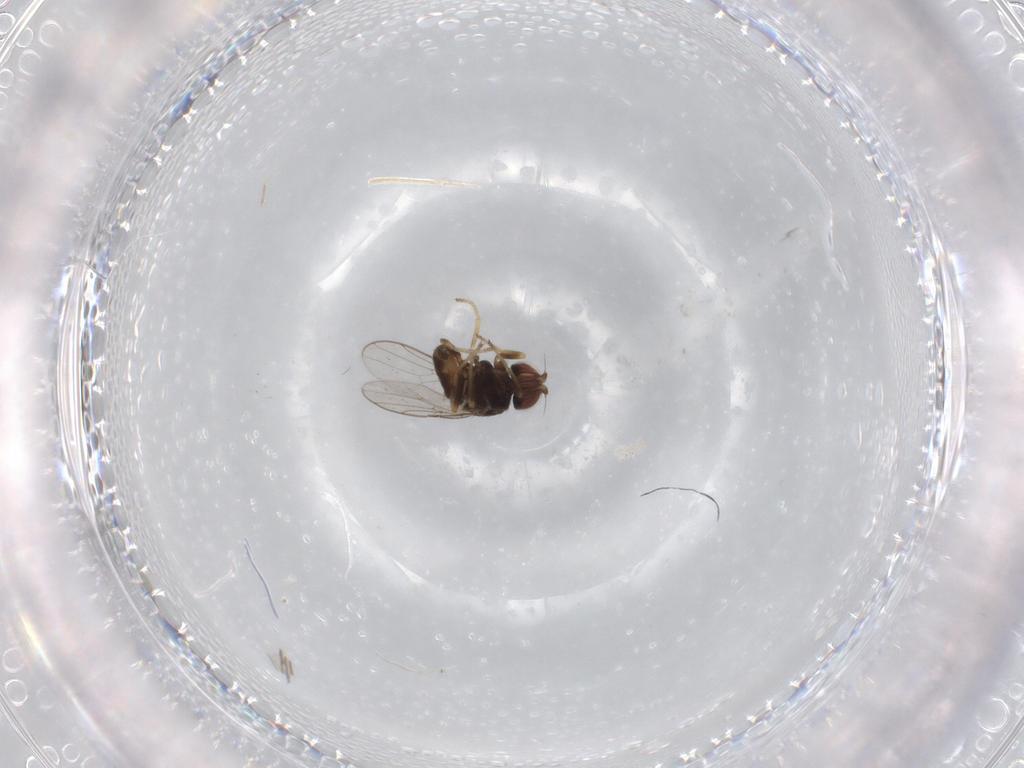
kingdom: Animalia
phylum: Arthropoda
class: Insecta
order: Diptera
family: Chloropidae
